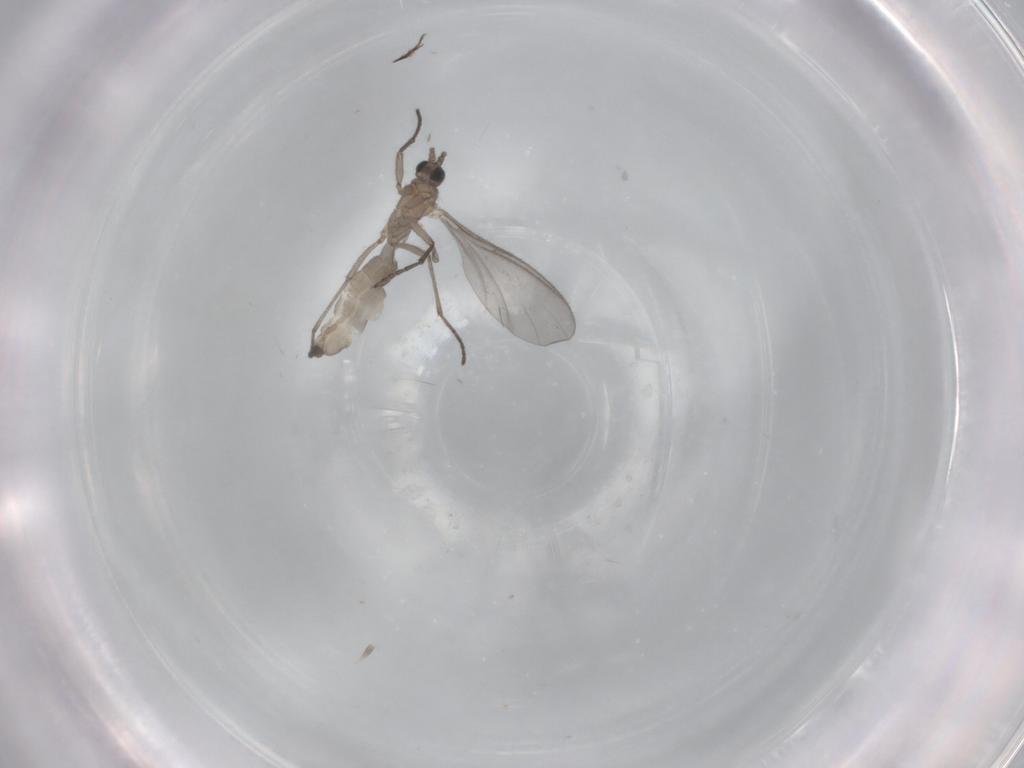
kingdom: Animalia
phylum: Arthropoda
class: Insecta
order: Diptera
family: Sciaridae
